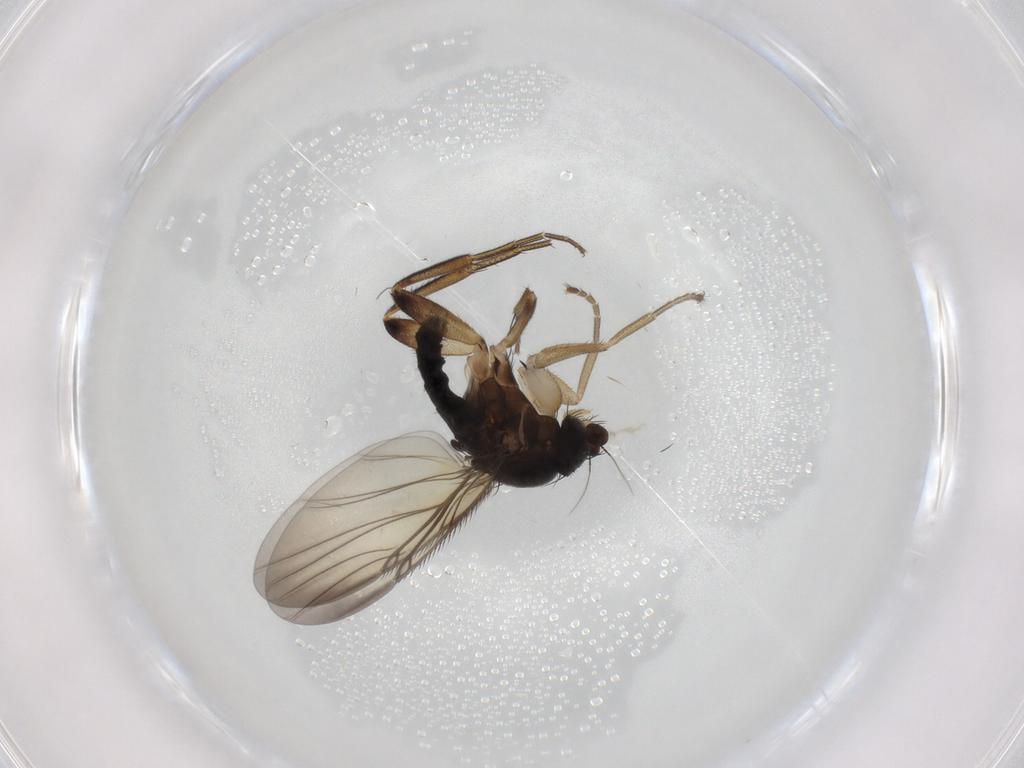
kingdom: Animalia
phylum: Arthropoda
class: Insecta
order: Diptera
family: Phoridae
